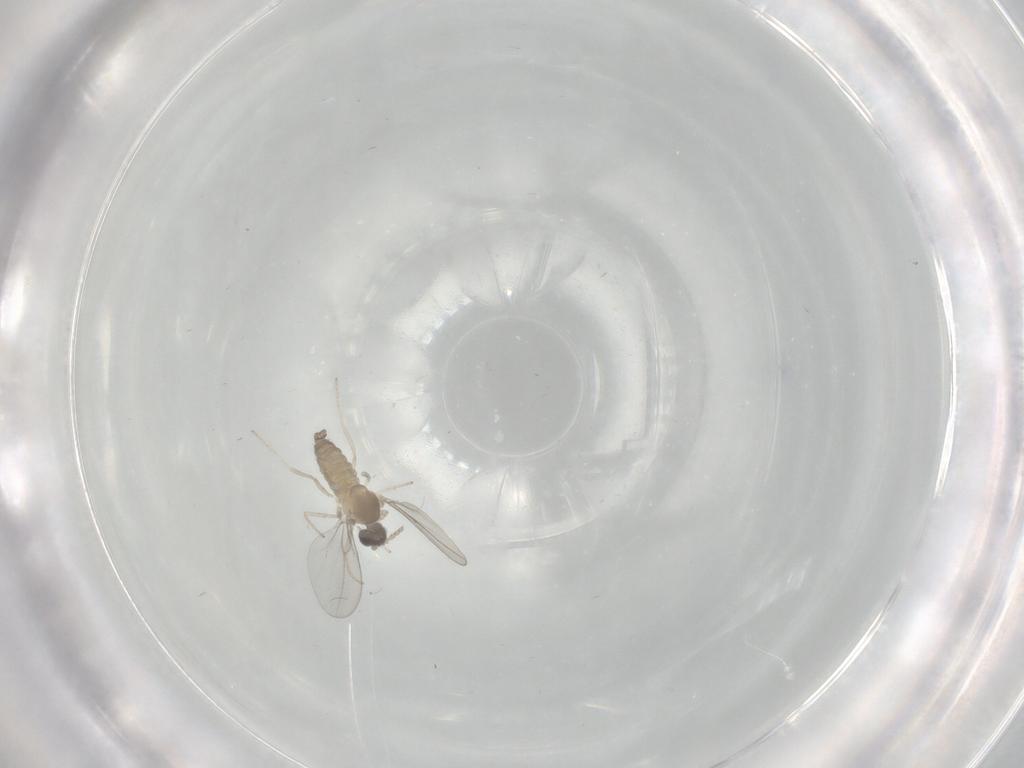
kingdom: Animalia
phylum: Arthropoda
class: Insecta
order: Diptera
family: Cecidomyiidae
